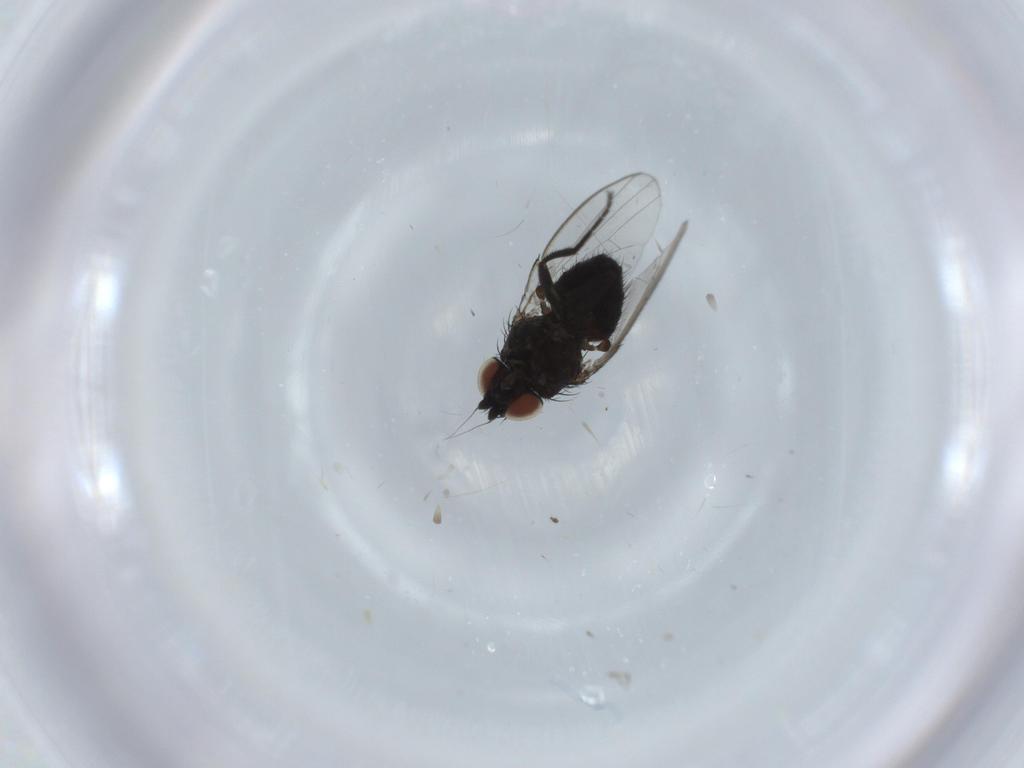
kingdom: Animalia
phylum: Arthropoda
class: Insecta
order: Diptera
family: Milichiidae
